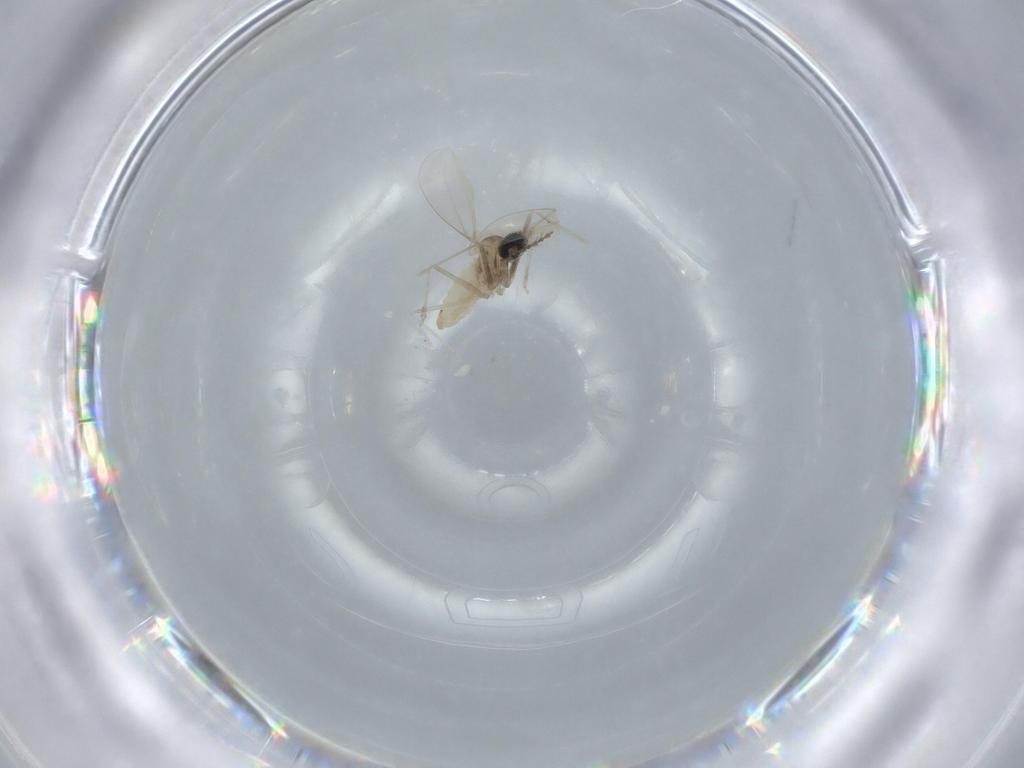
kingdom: Animalia
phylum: Arthropoda
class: Insecta
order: Diptera
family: Cecidomyiidae
